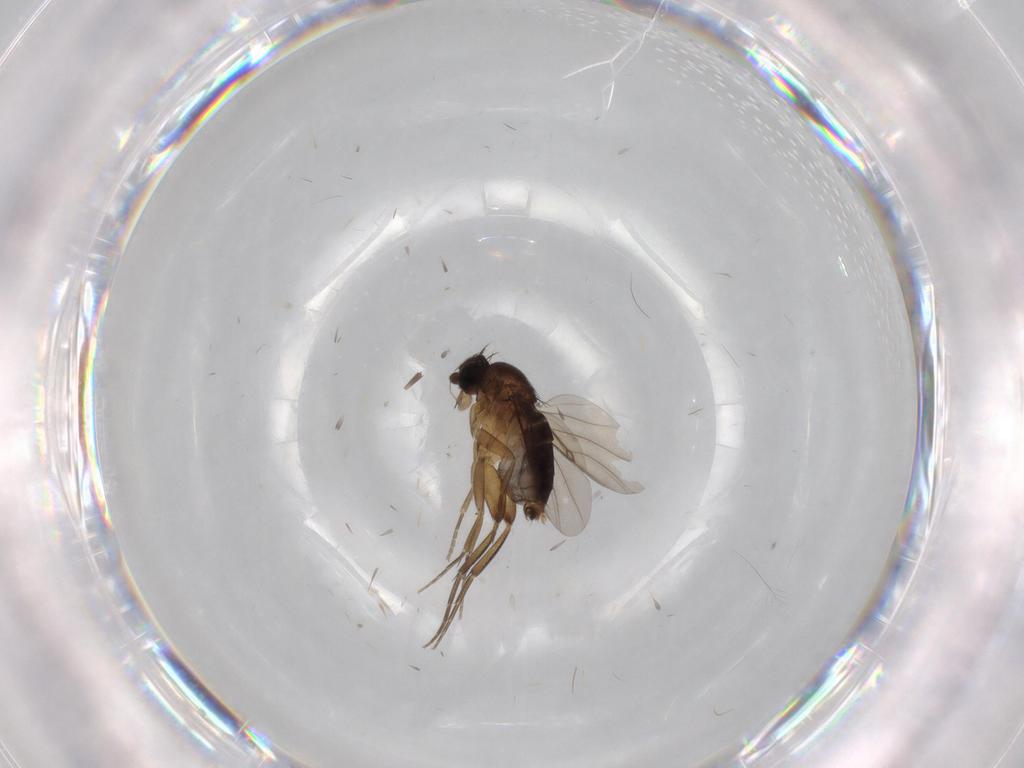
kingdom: Animalia
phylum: Arthropoda
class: Insecta
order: Diptera
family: Phoridae
